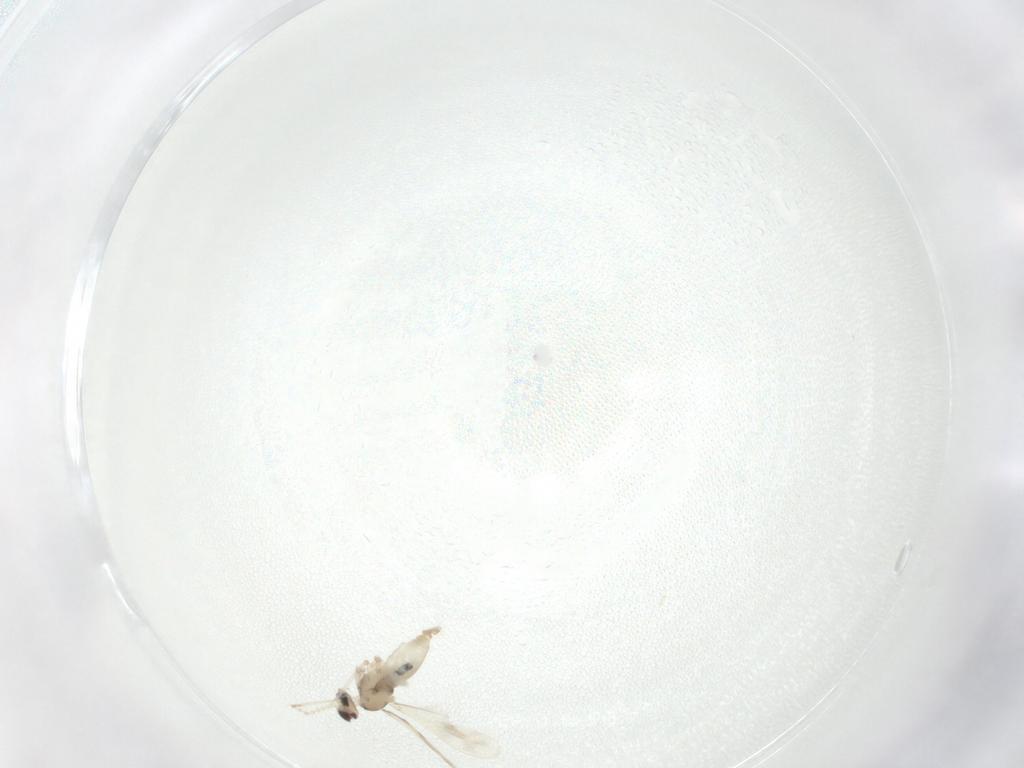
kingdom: Animalia
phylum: Arthropoda
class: Insecta
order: Diptera
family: Cecidomyiidae
